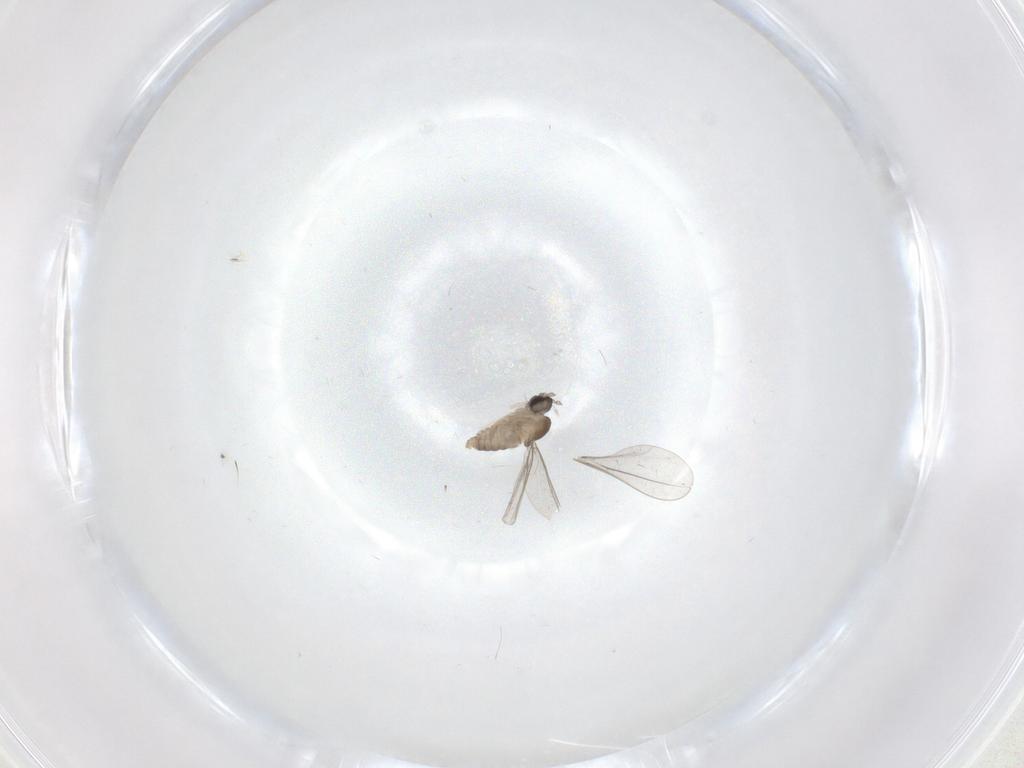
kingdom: Animalia
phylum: Arthropoda
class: Insecta
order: Diptera
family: Cecidomyiidae
